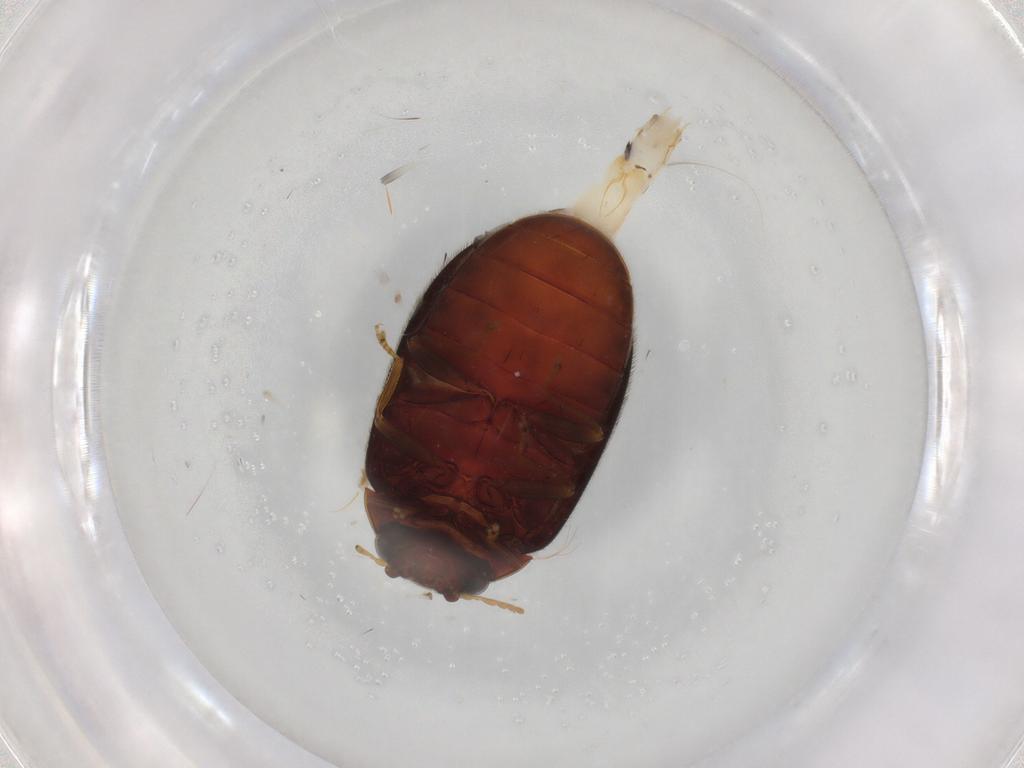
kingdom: Animalia
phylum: Arthropoda
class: Insecta
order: Coleoptera
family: Scirtidae
